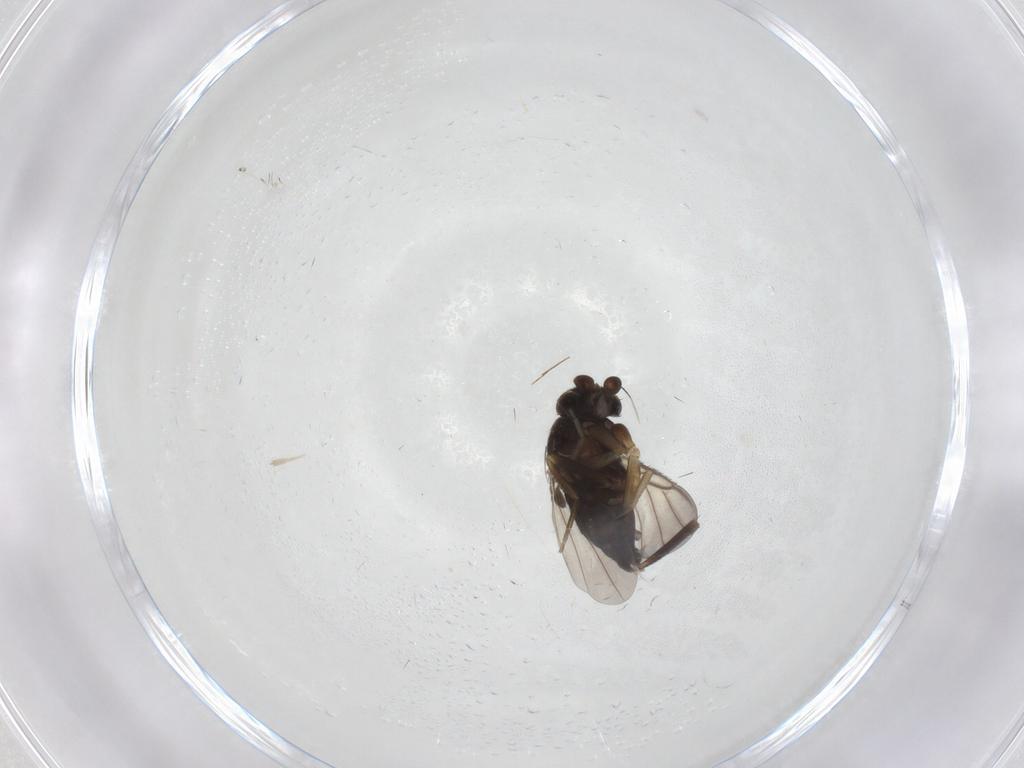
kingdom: Animalia
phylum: Arthropoda
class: Insecta
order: Diptera
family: Phoridae
